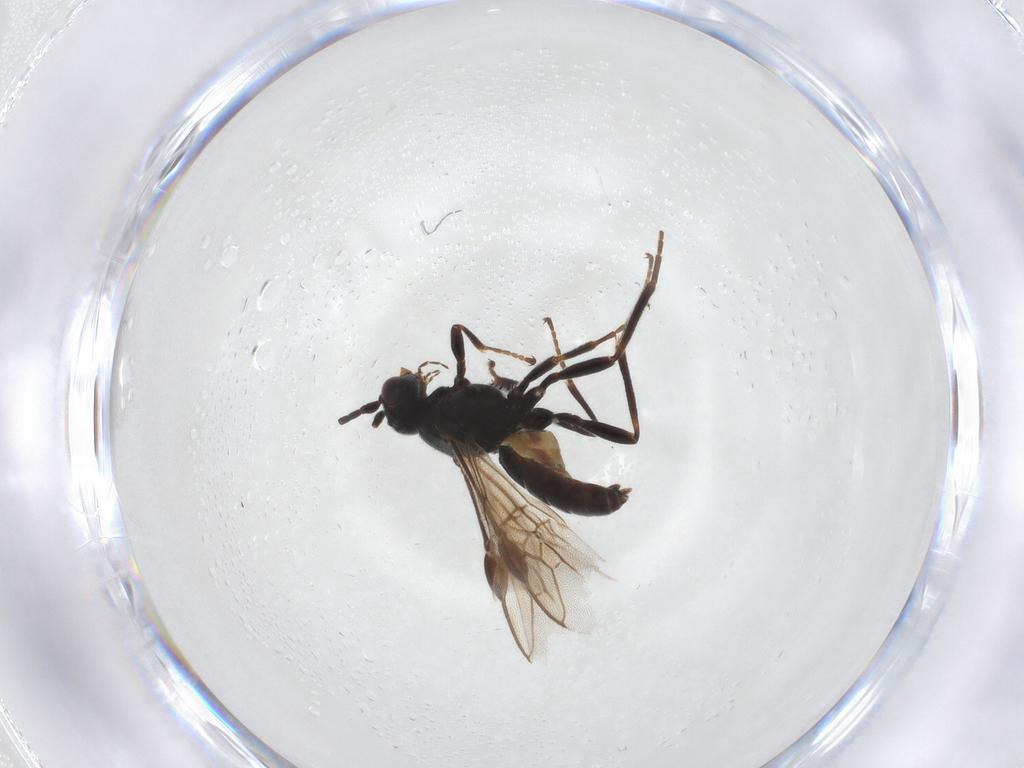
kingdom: Animalia
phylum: Arthropoda
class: Insecta
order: Hymenoptera
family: Braconidae
